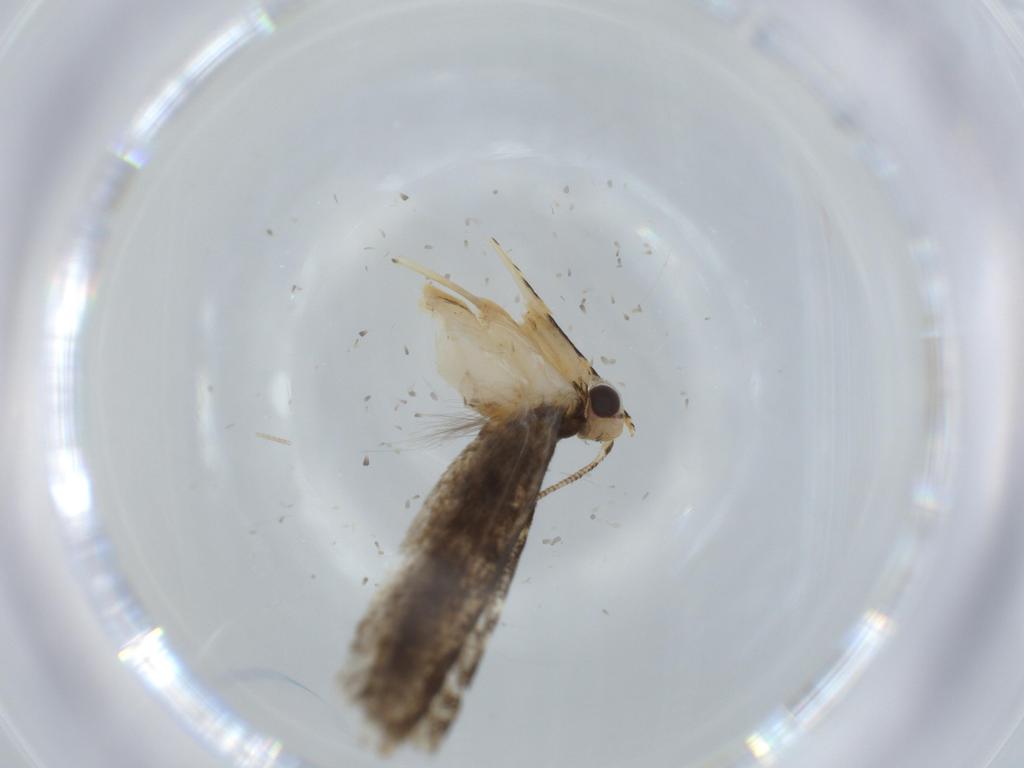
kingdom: Animalia
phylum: Arthropoda
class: Insecta
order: Lepidoptera
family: Tineidae
